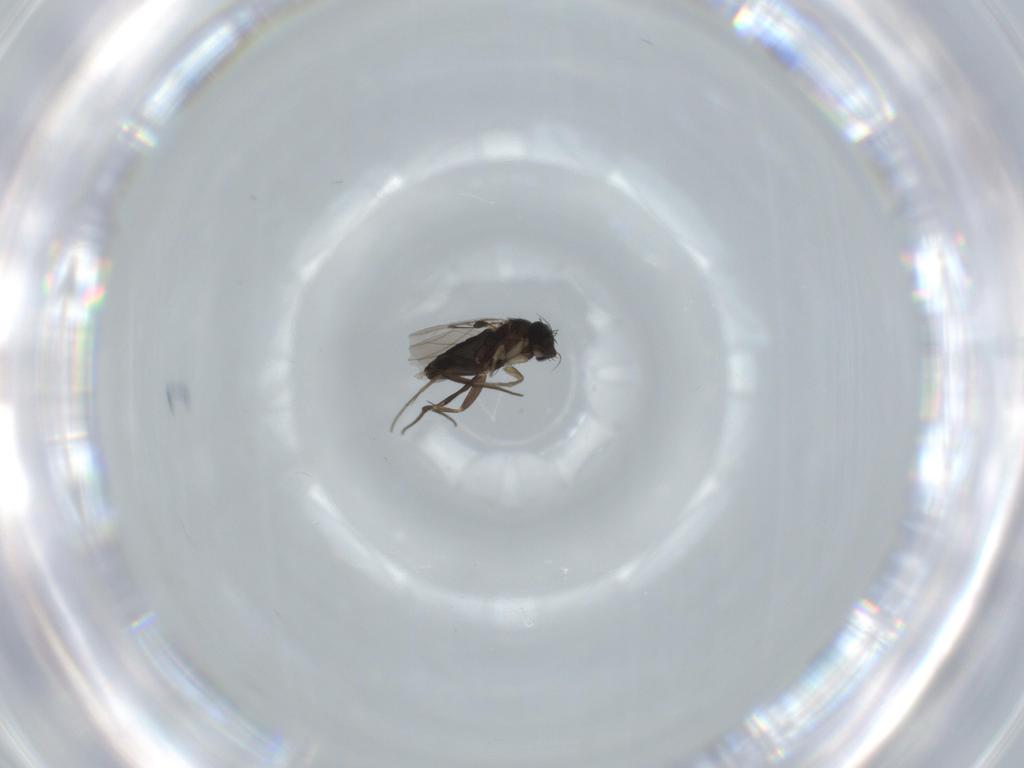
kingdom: Animalia
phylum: Arthropoda
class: Insecta
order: Diptera
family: Phoridae
